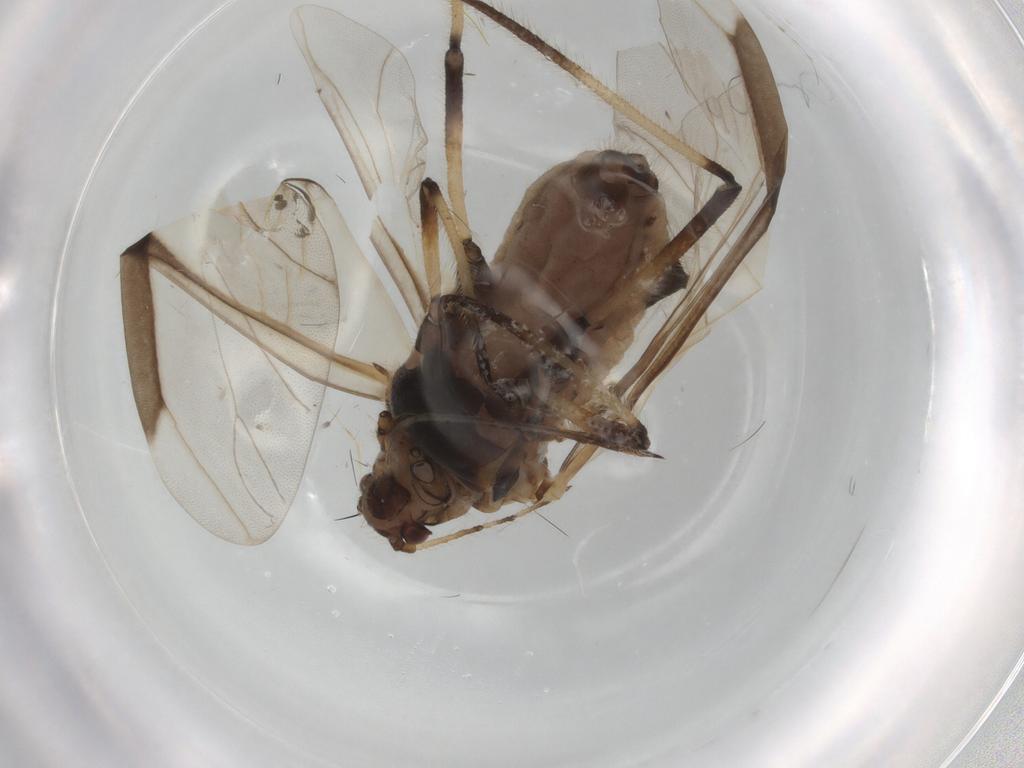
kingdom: Animalia
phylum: Arthropoda
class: Insecta
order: Hemiptera
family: Aphididae
